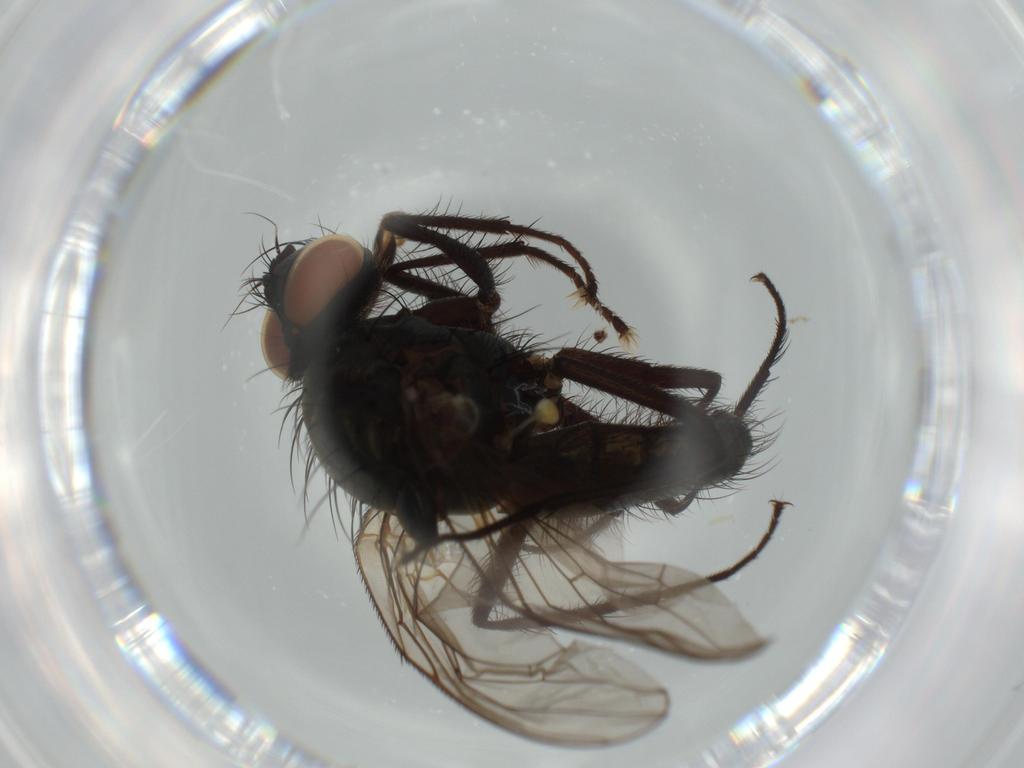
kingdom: Animalia
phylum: Arthropoda
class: Insecta
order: Diptera
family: Anthomyiidae
